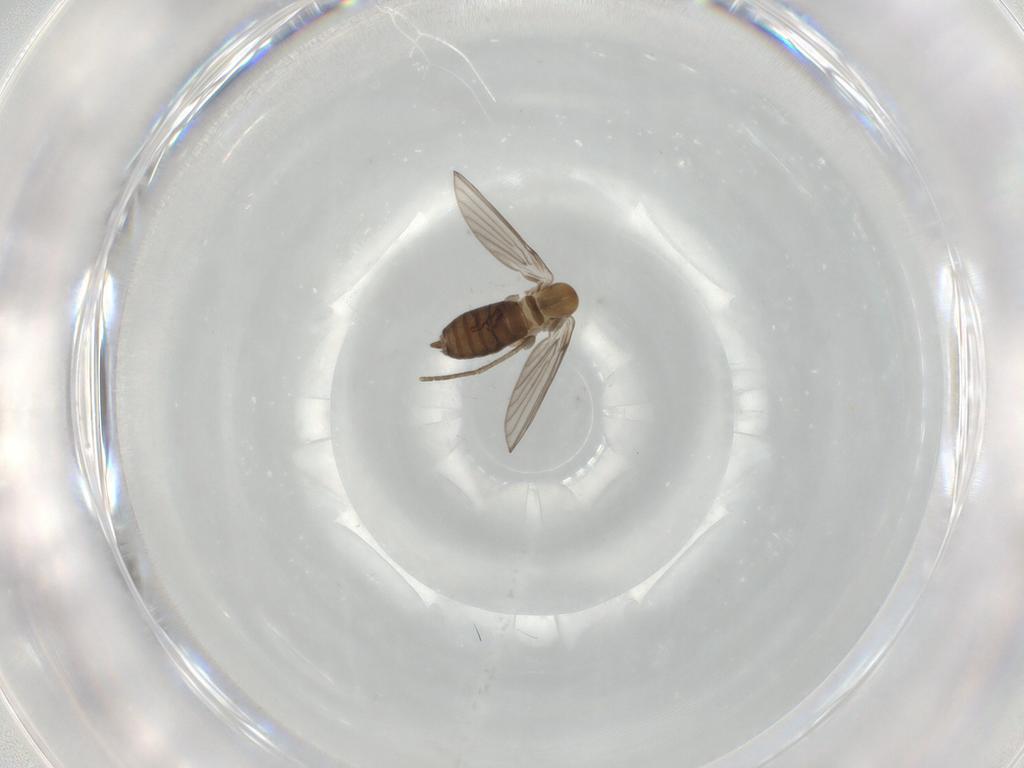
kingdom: Animalia
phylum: Arthropoda
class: Insecta
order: Diptera
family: Psychodidae
